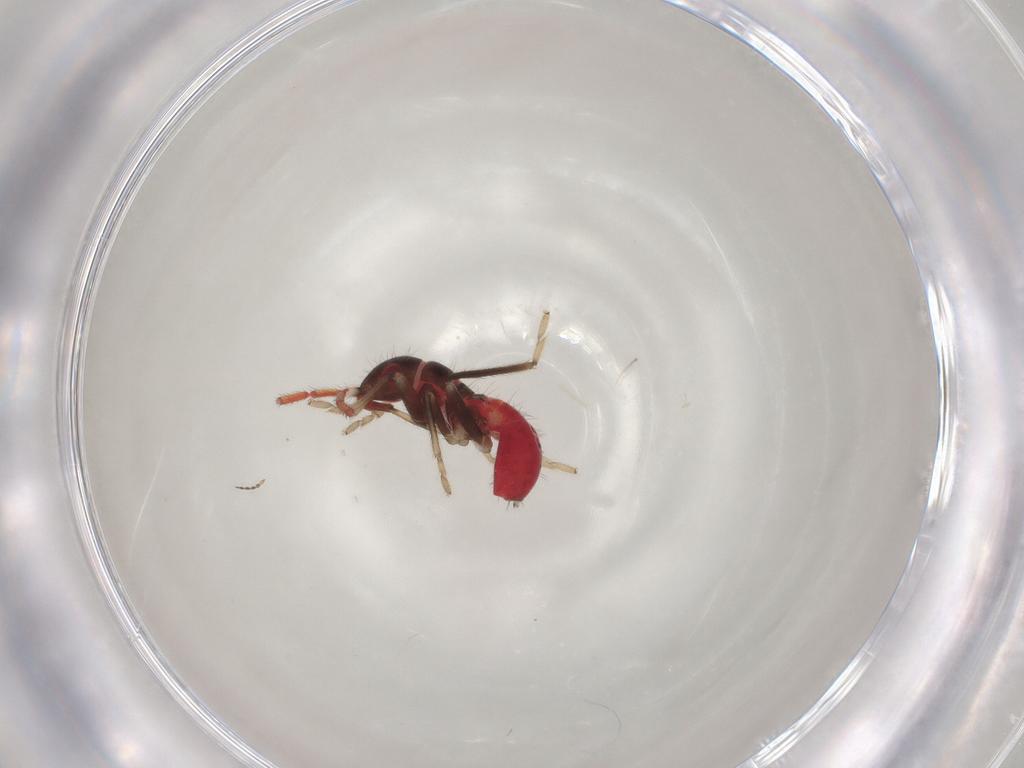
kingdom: Animalia
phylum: Arthropoda
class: Insecta
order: Hemiptera
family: Rhyparochromidae
